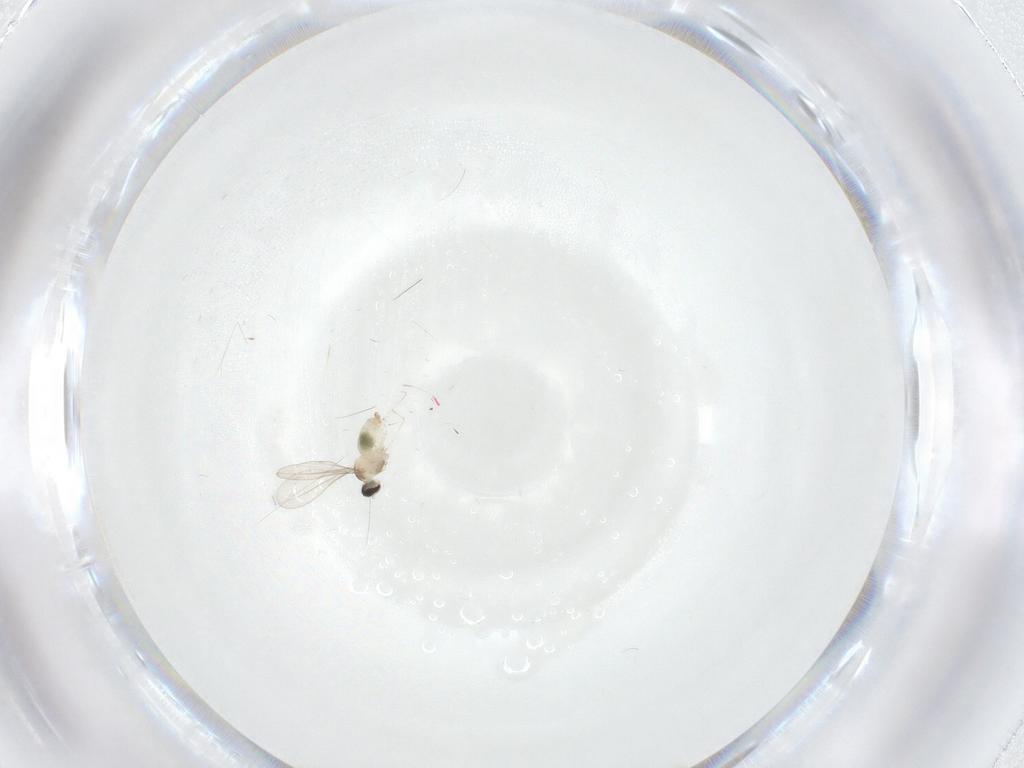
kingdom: Animalia
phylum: Arthropoda
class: Insecta
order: Diptera
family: Cecidomyiidae
